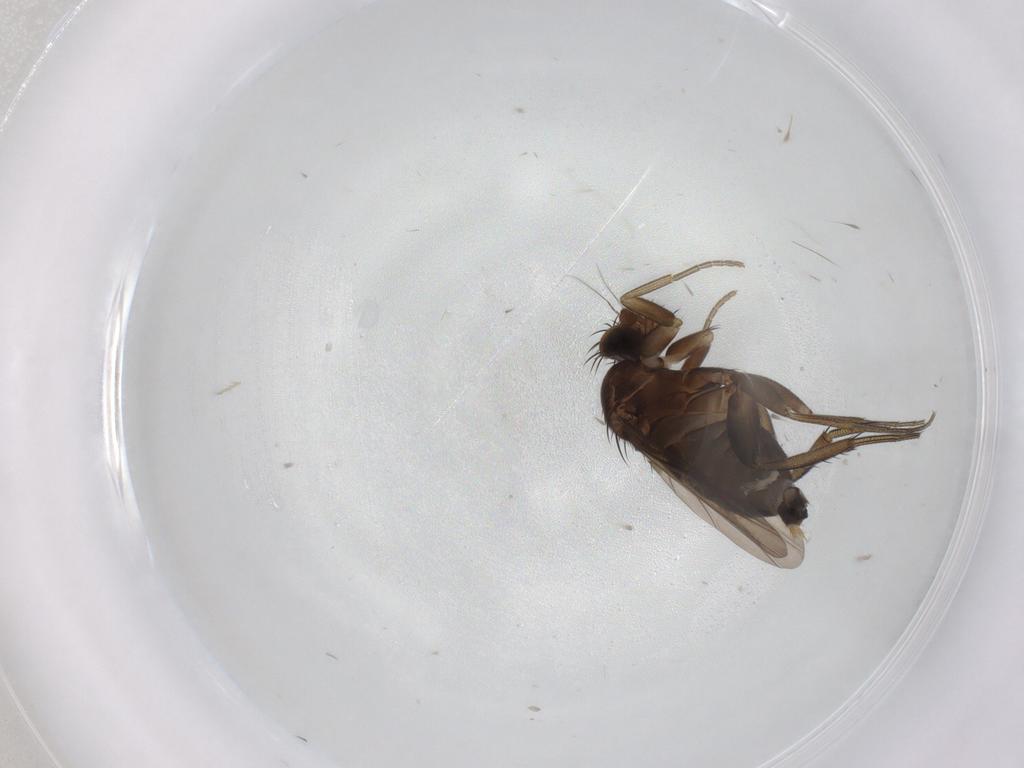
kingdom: Animalia
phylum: Arthropoda
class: Insecta
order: Diptera
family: Phoridae
